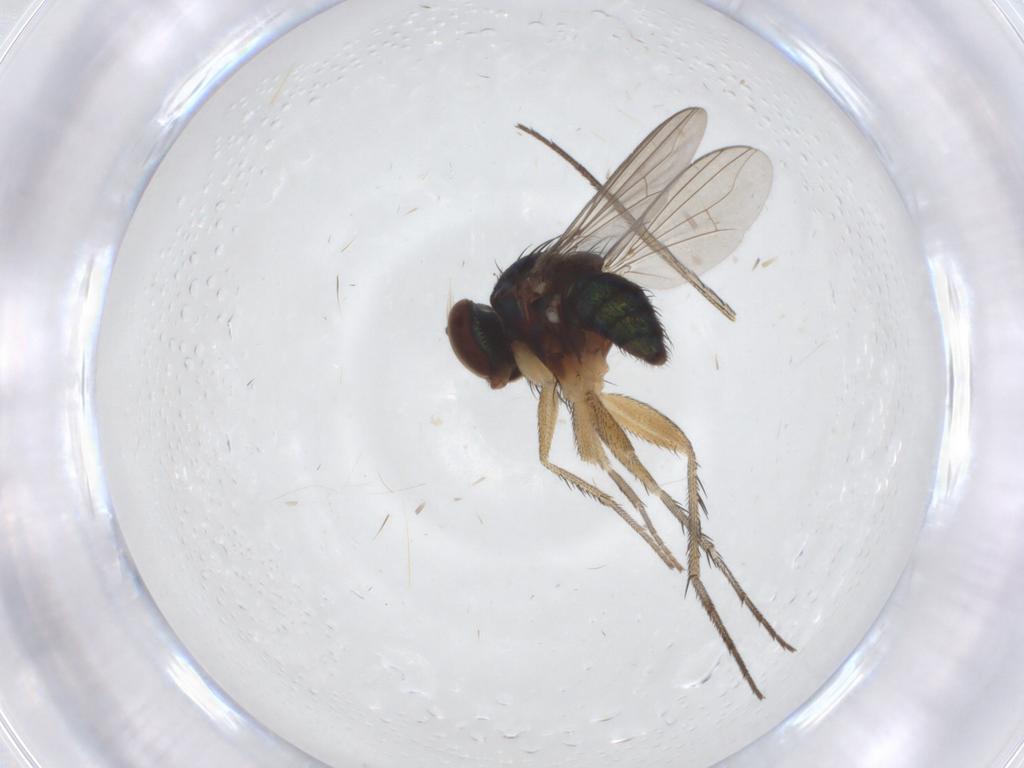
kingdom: Animalia
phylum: Arthropoda
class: Insecta
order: Diptera
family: Dolichopodidae
